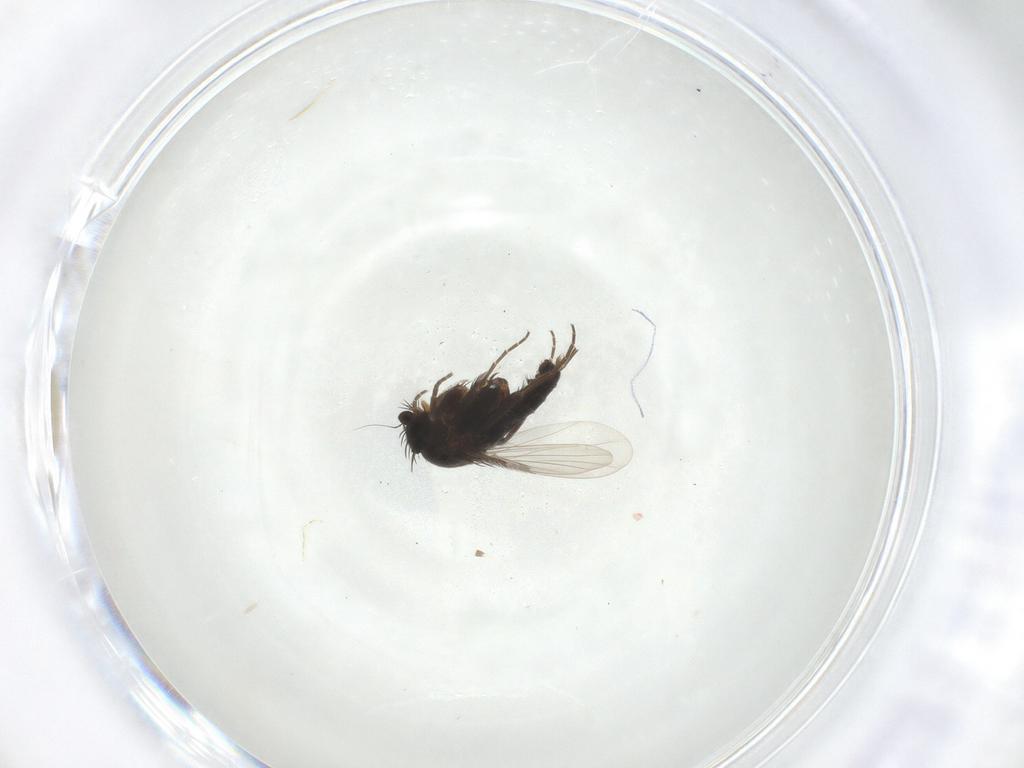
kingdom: Animalia
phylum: Arthropoda
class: Insecta
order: Diptera
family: Phoridae
